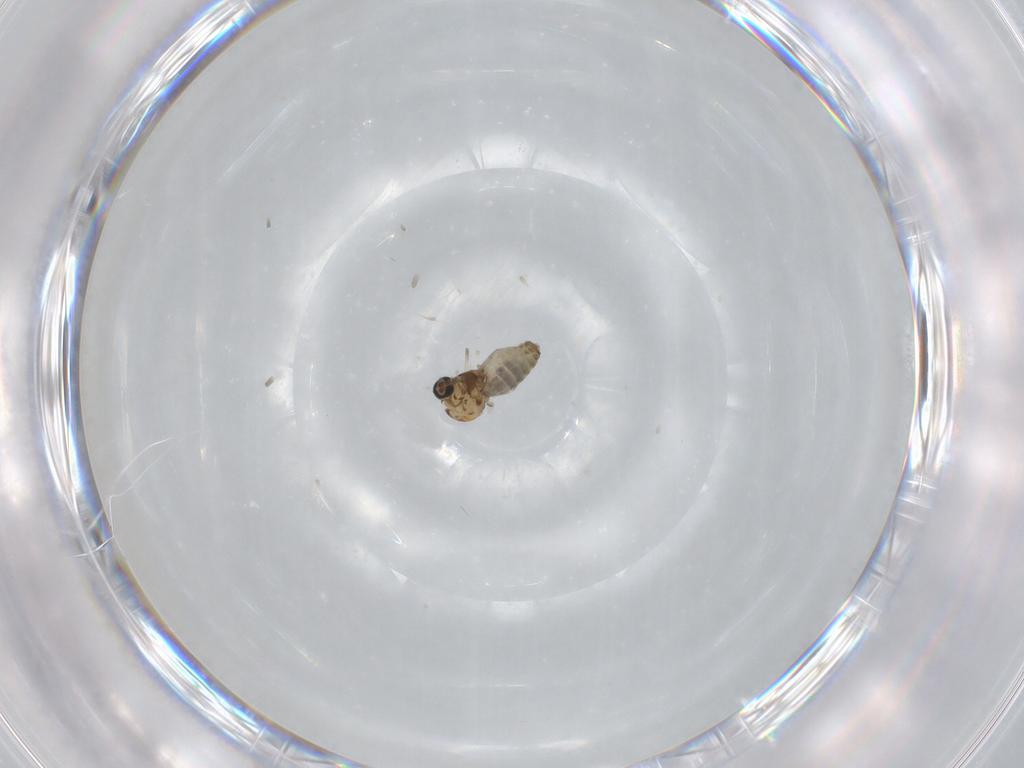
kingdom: Animalia
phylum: Arthropoda
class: Insecta
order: Diptera
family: Ceratopogonidae
